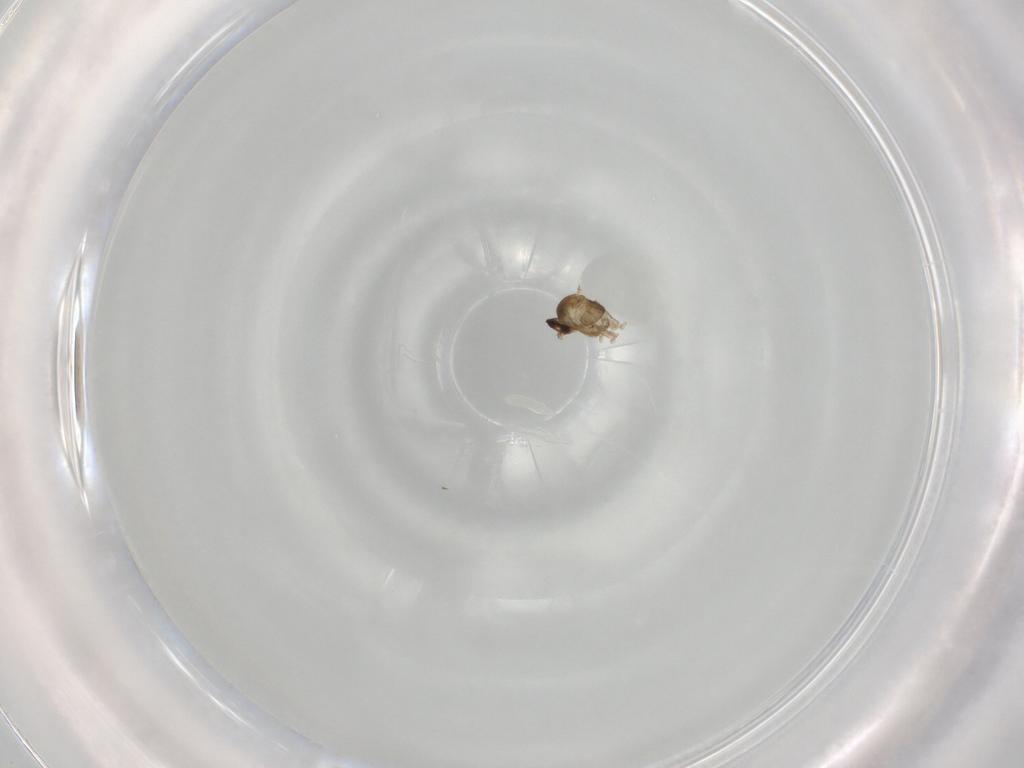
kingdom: Animalia
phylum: Arthropoda
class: Insecta
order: Diptera
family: Cecidomyiidae
